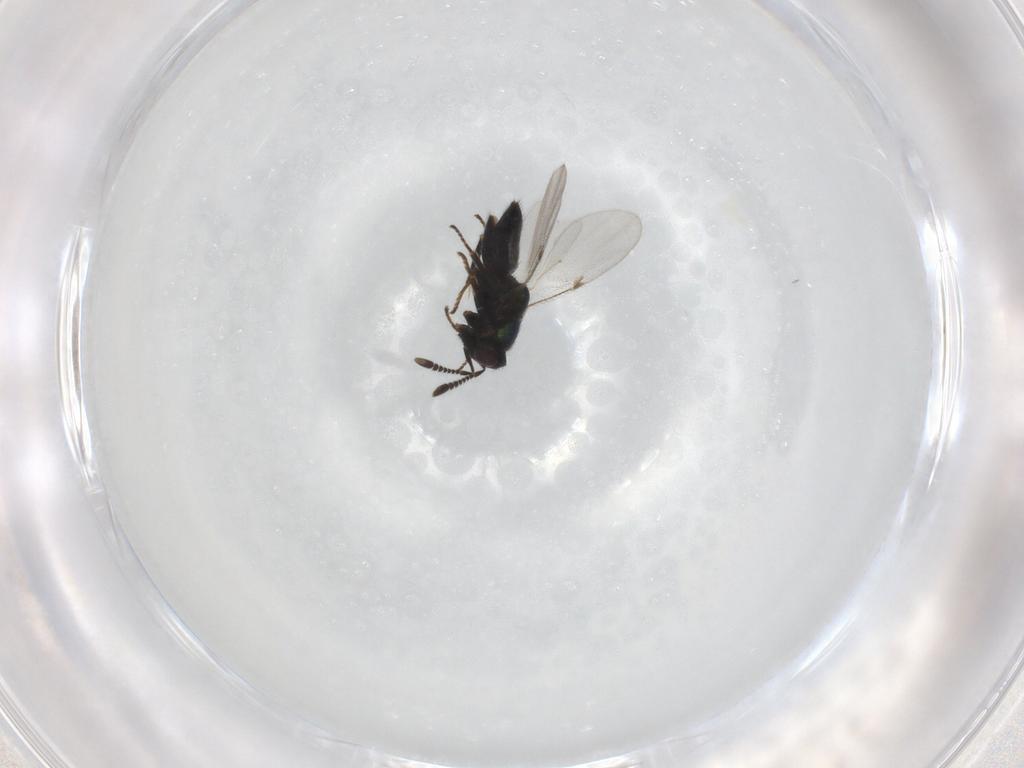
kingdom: Animalia
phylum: Arthropoda
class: Insecta
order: Hymenoptera
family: Encyrtidae
